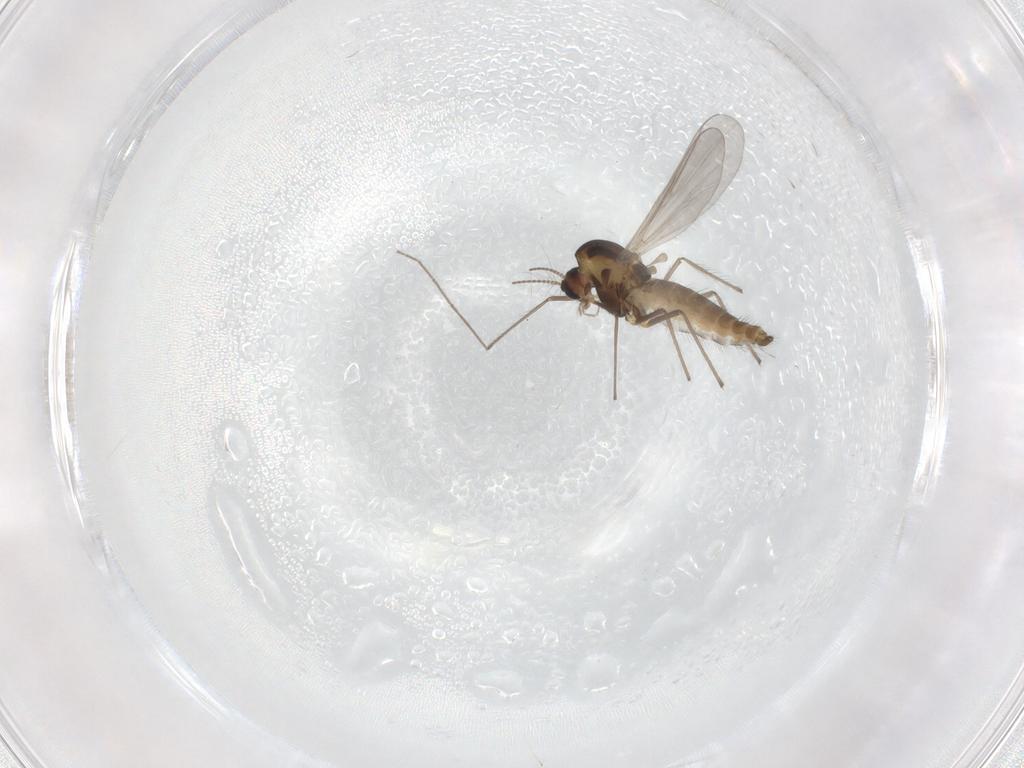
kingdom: Animalia
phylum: Arthropoda
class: Insecta
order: Diptera
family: Chironomidae
